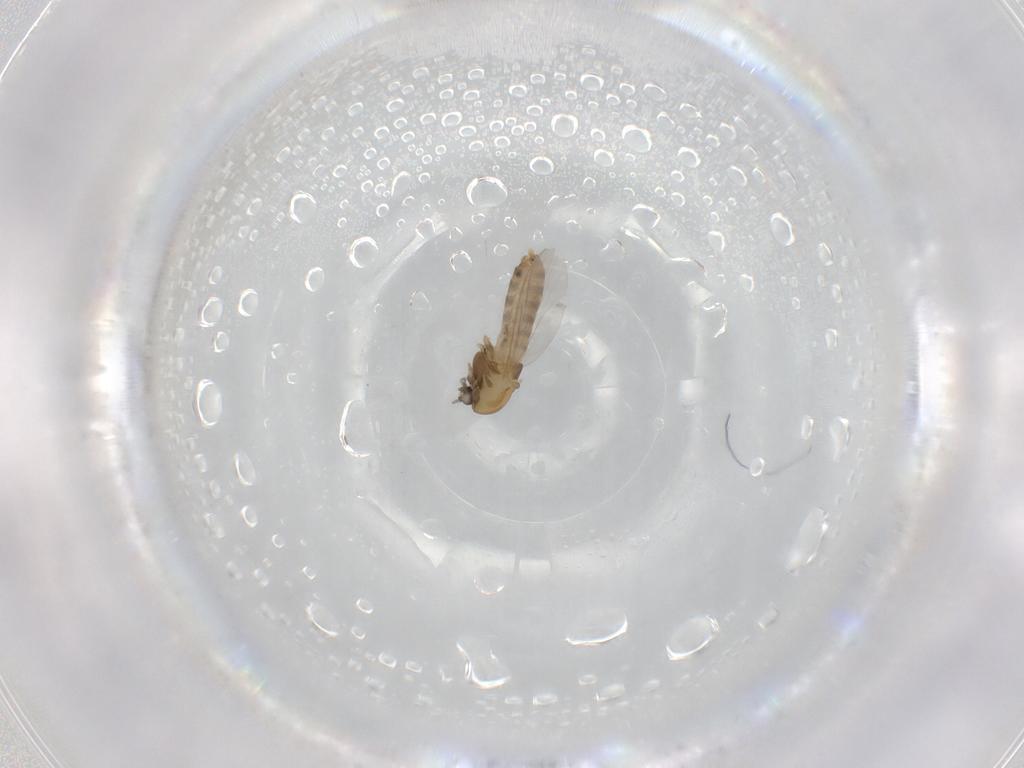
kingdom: Animalia
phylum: Arthropoda
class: Insecta
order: Diptera
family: Chironomidae
